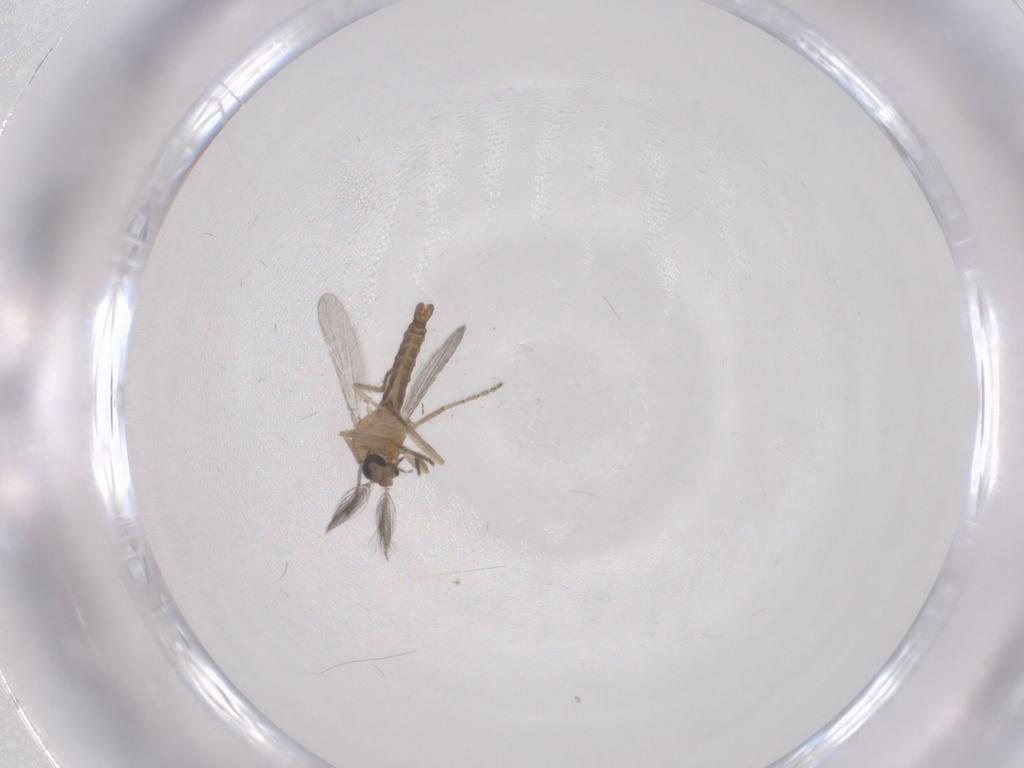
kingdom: Animalia
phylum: Arthropoda
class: Insecta
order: Diptera
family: Ceratopogonidae
